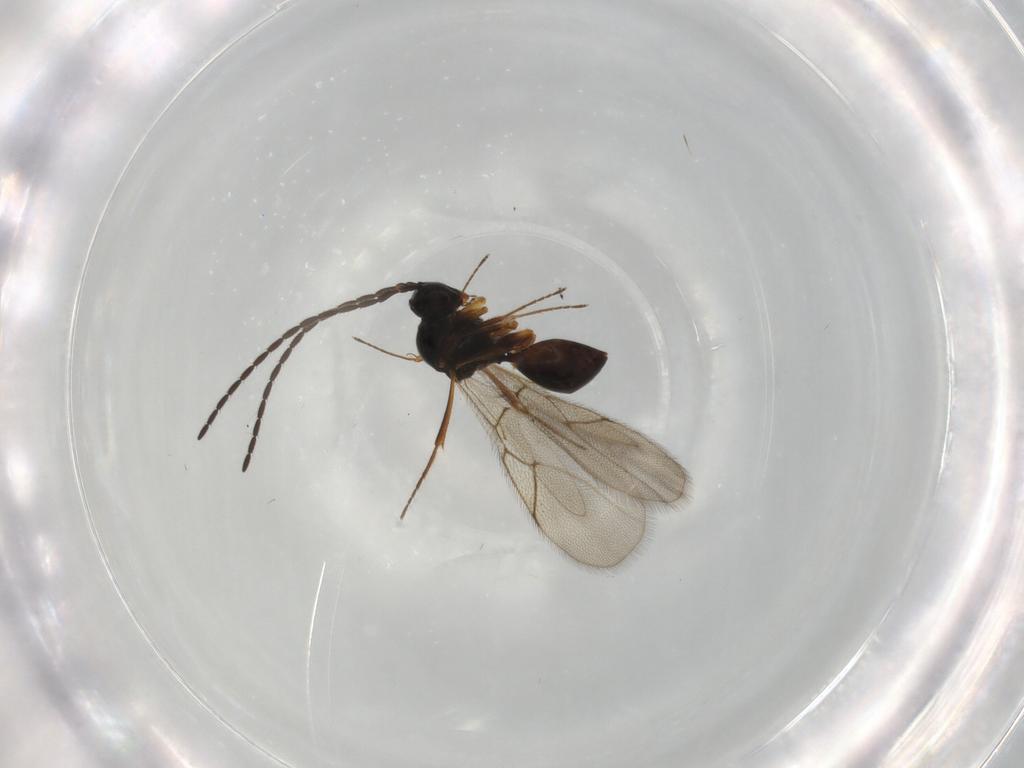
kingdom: Animalia
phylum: Arthropoda
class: Insecta
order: Hymenoptera
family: Figitidae
